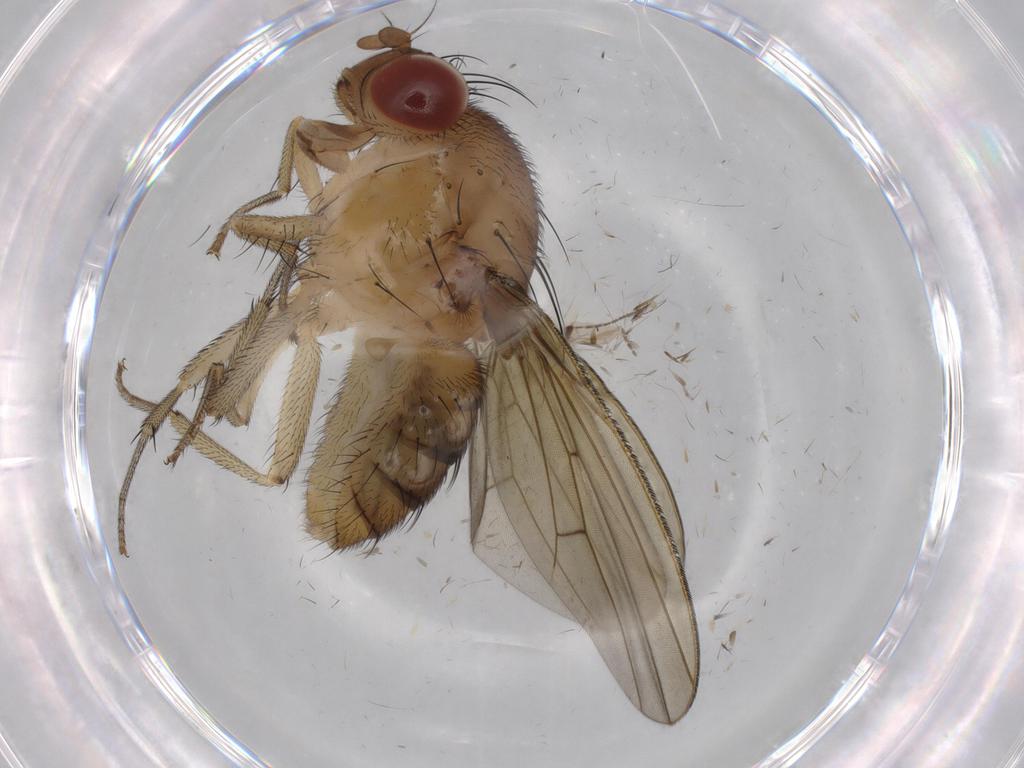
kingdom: Animalia
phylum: Arthropoda
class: Insecta
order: Diptera
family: Cecidomyiidae
